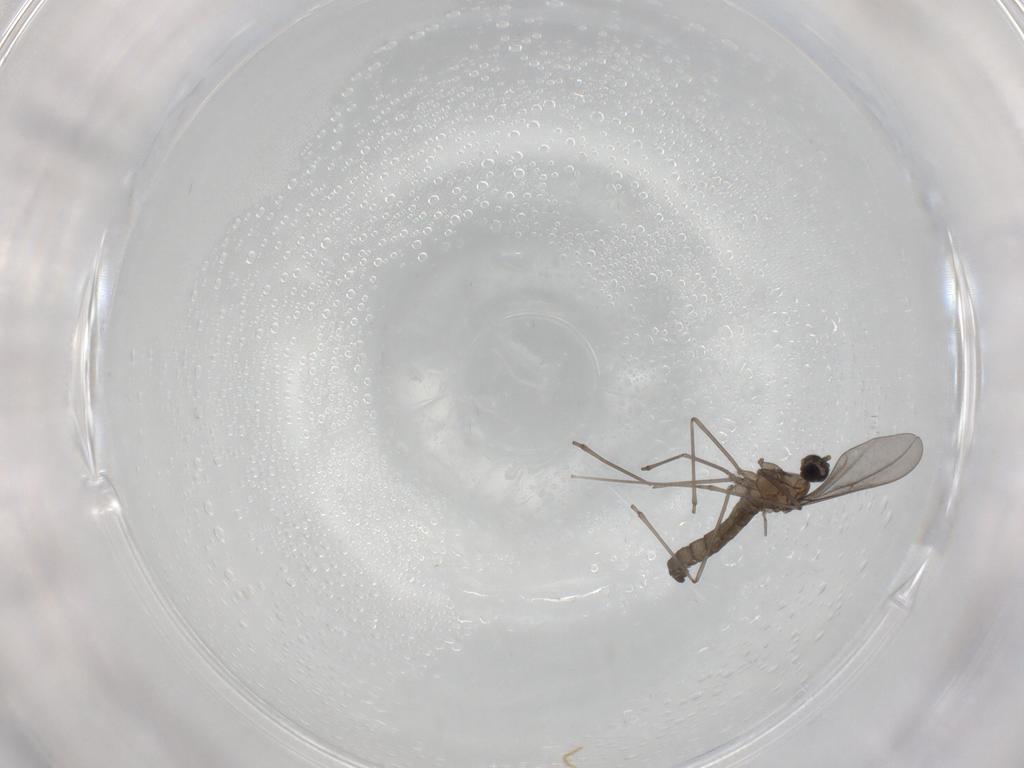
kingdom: Animalia
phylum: Arthropoda
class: Insecta
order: Diptera
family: Cecidomyiidae
